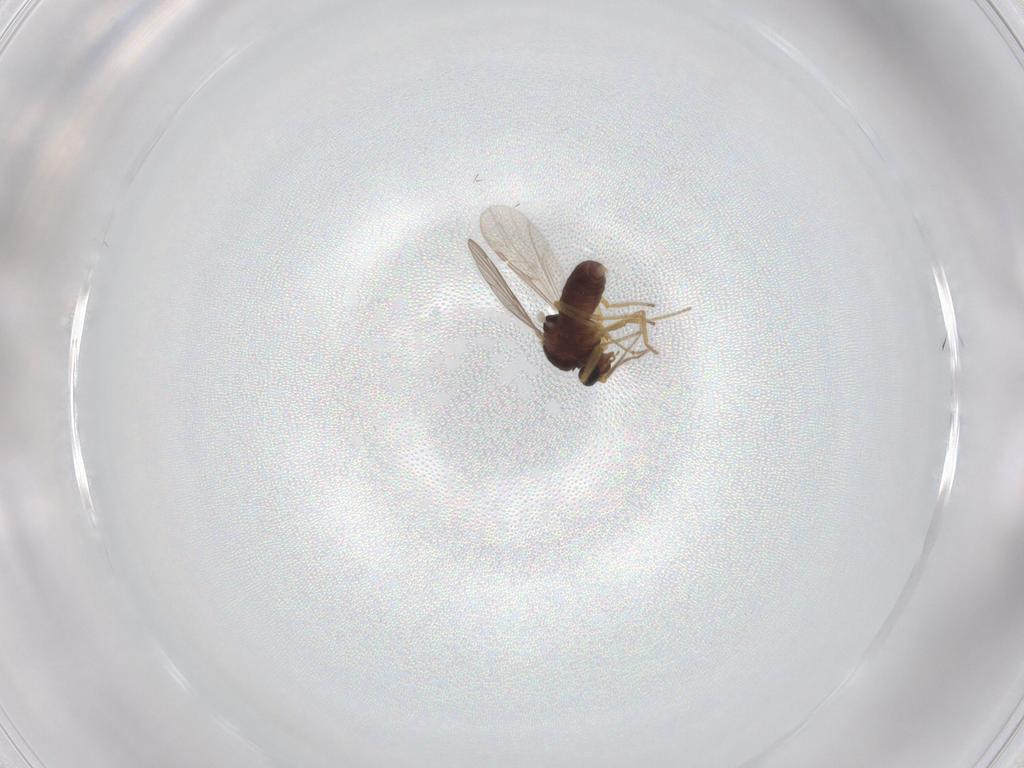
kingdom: Animalia
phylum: Arthropoda
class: Insecta
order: Diptera
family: Ceratopogonidae
